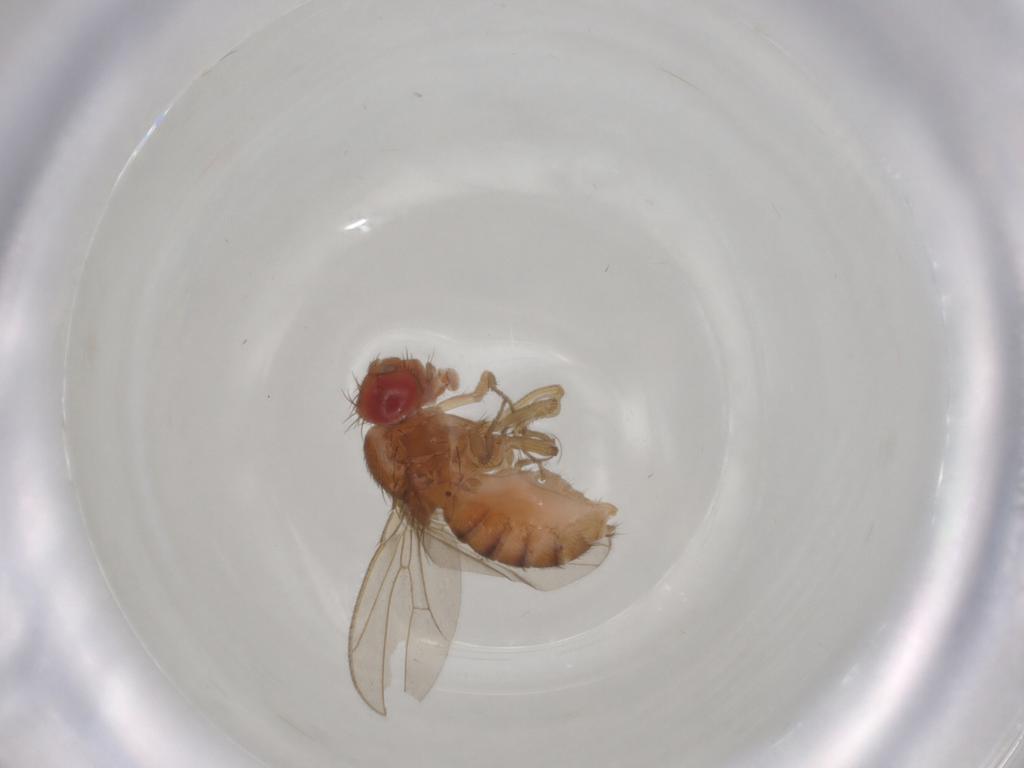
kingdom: Animalia
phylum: Arthropoda
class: Insecta
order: Diptera
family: Drosophilidae
